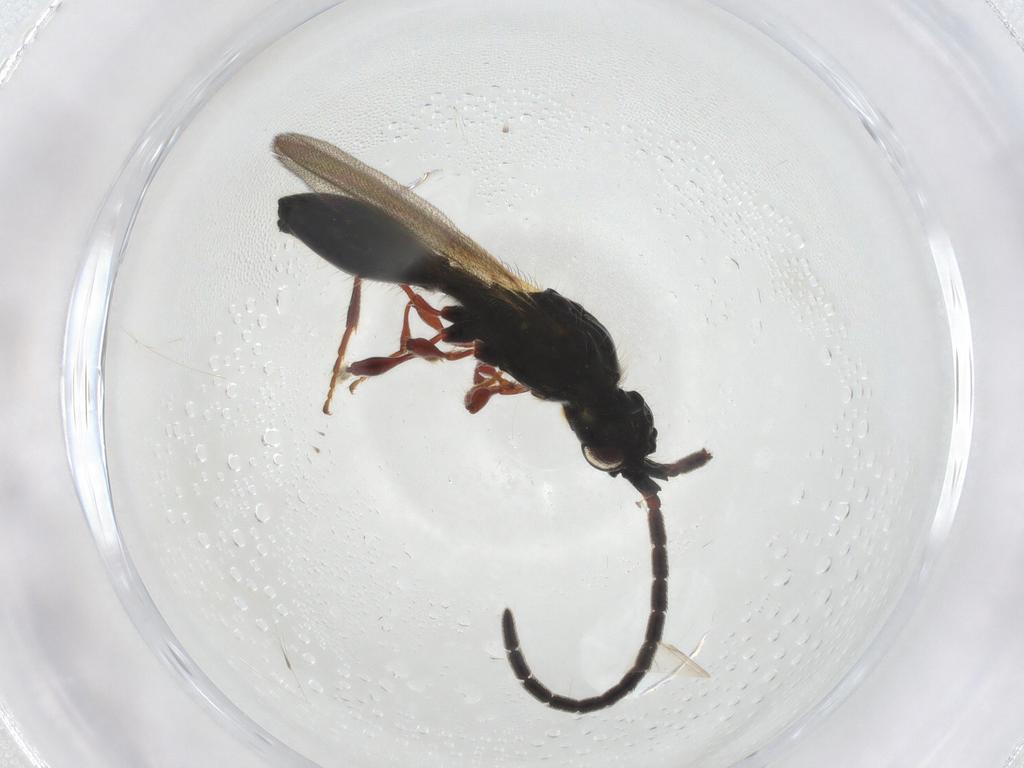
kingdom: Animalia
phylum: Arthropoda
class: Insecta
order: Hymenoptera
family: Diapriidae
